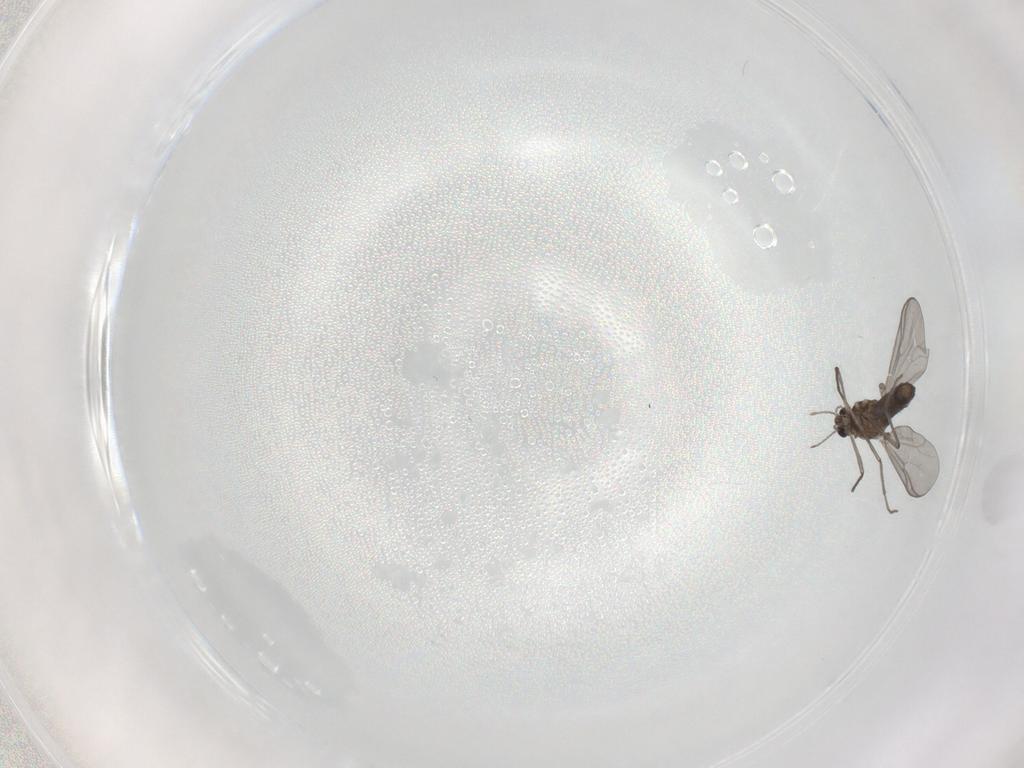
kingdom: Animalia
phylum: Arthropoda
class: Insecta
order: Diptera
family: Chironomidae
